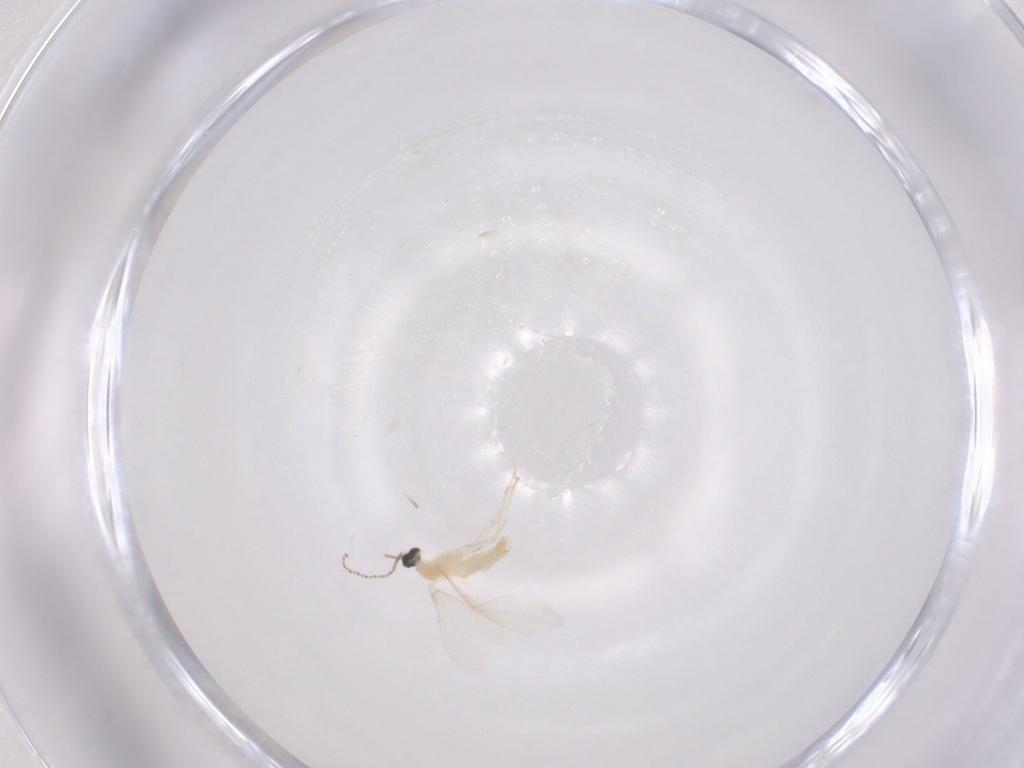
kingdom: Animalia
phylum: Arthropoda
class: Insecta
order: Diptera
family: Cecidomyiidae
